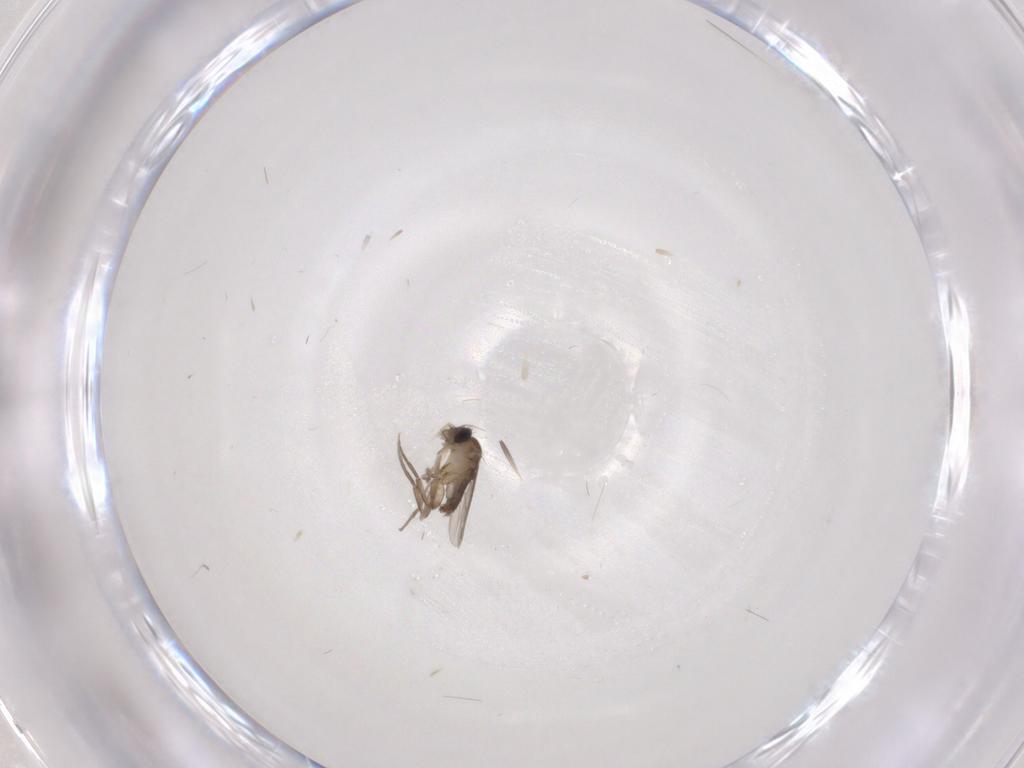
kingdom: Animalia
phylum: Arthropoda
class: Insecta
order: Diptera
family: Phoridae
